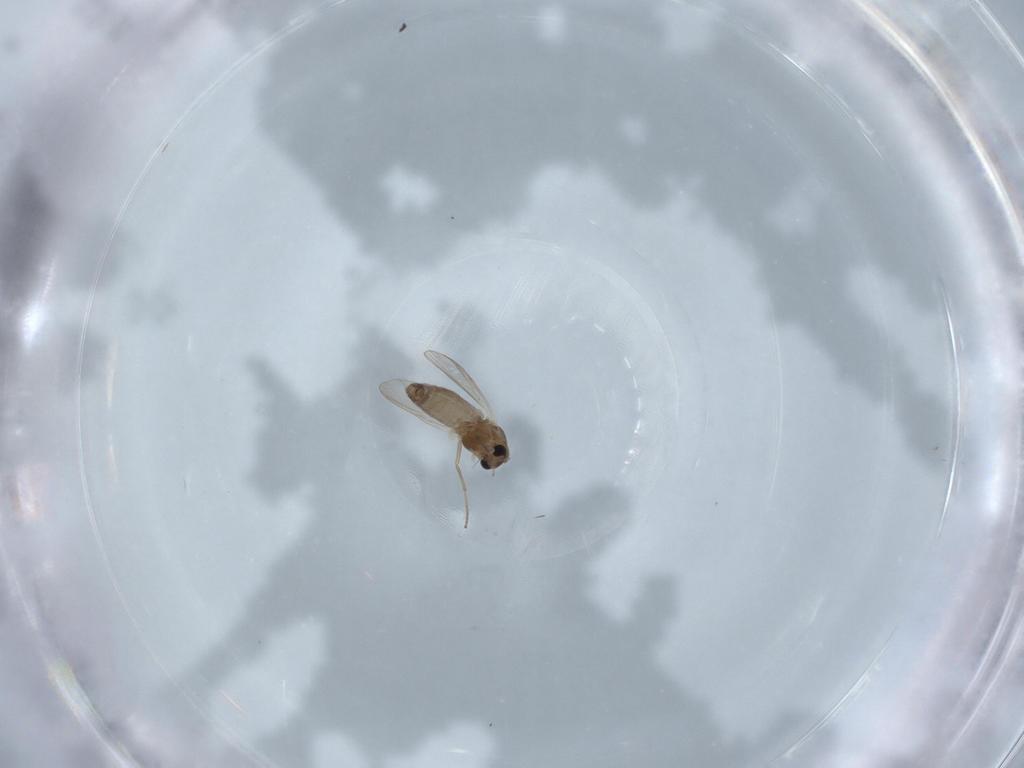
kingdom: Animalia
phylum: Arthropoda
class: Insecta
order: Diptera
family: Chironomidae
